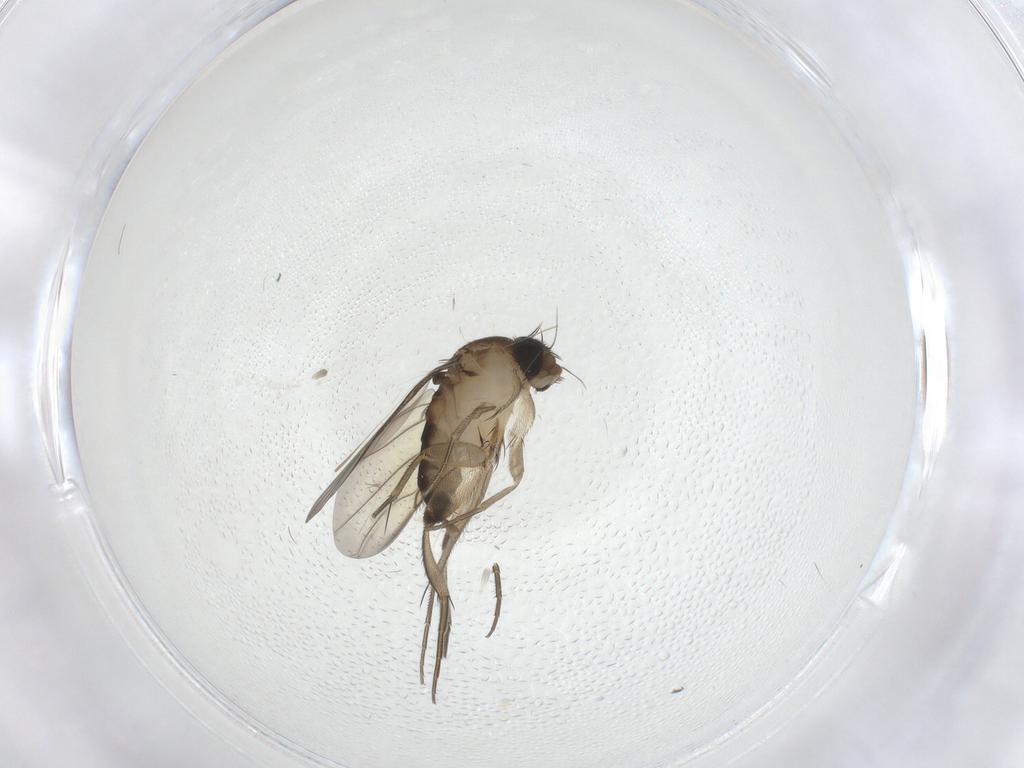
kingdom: Animalia
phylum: Arthropoda
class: Insecta
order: Diptera
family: Phoridae
